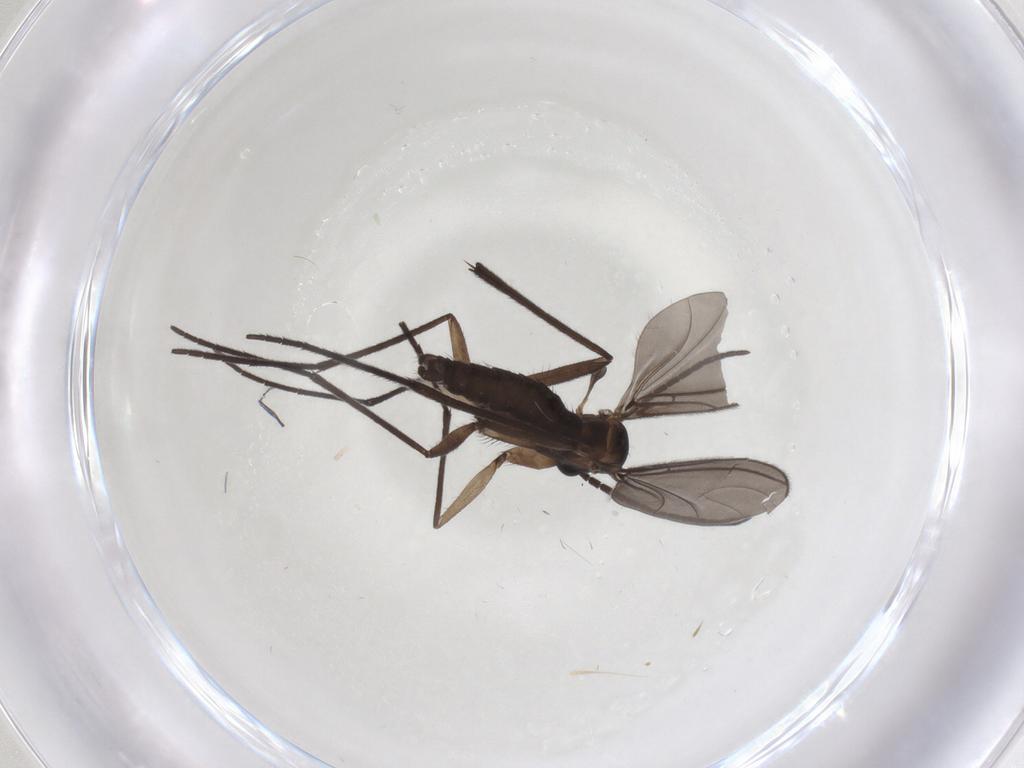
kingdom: Animalia
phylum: Arthropoda
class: Insecta
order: Diptera
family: Sciaridae
